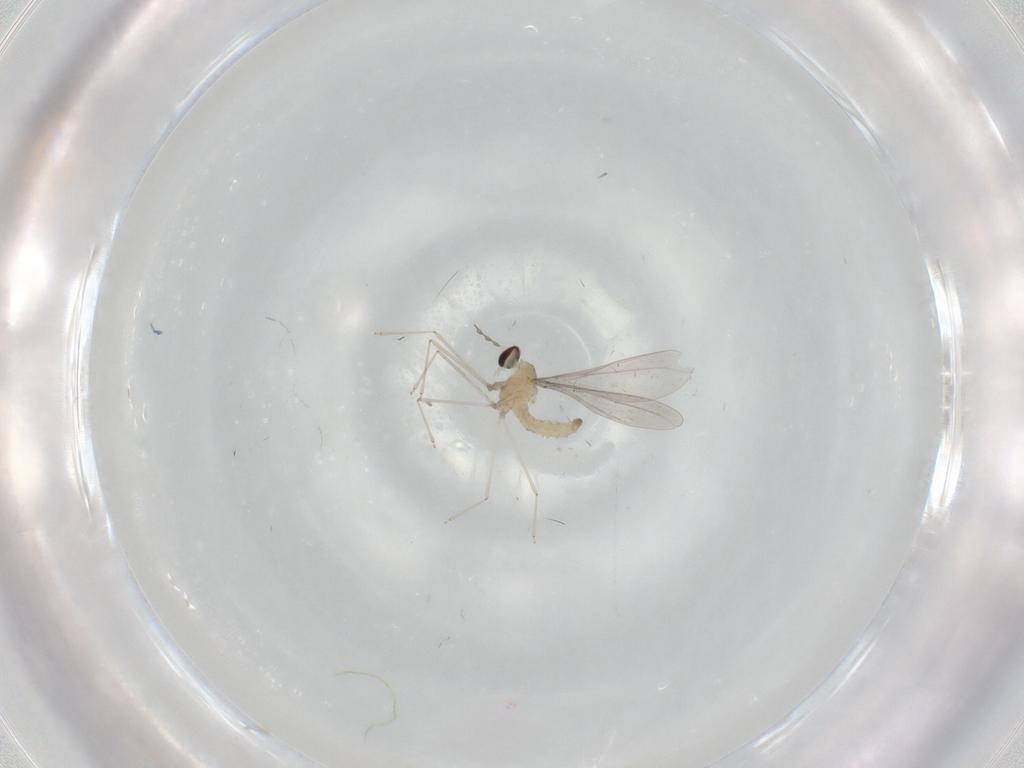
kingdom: Animalia
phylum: Arthropoda
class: Insecta
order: Diptera
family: Cecidomyiidae
